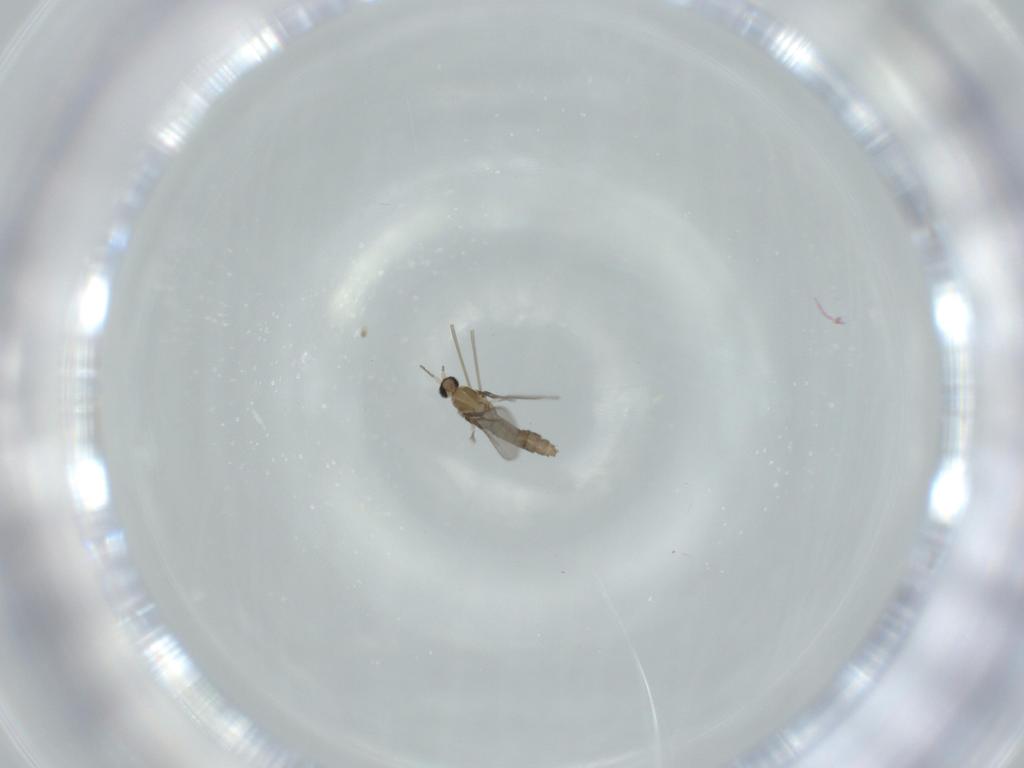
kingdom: Animalia
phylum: Arthropoda
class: Insecta
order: Diptera
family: Cecidomyiidae
